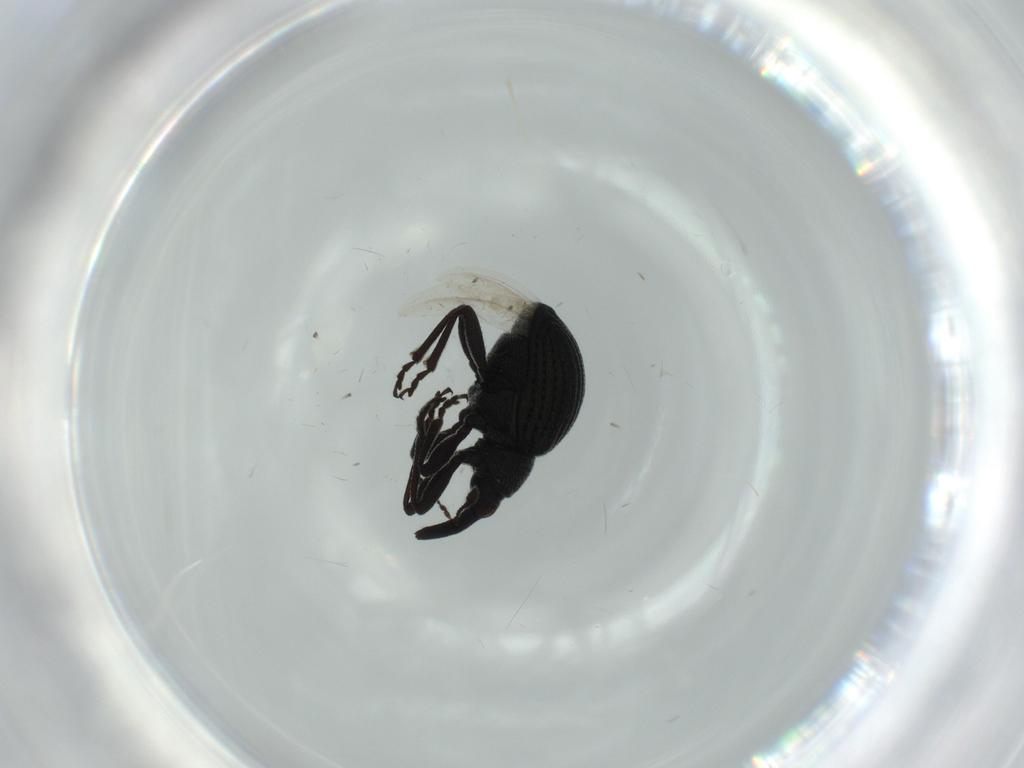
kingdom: Animalia
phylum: Arthropoda
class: Insecta
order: Coleoptera
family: Brentidae
